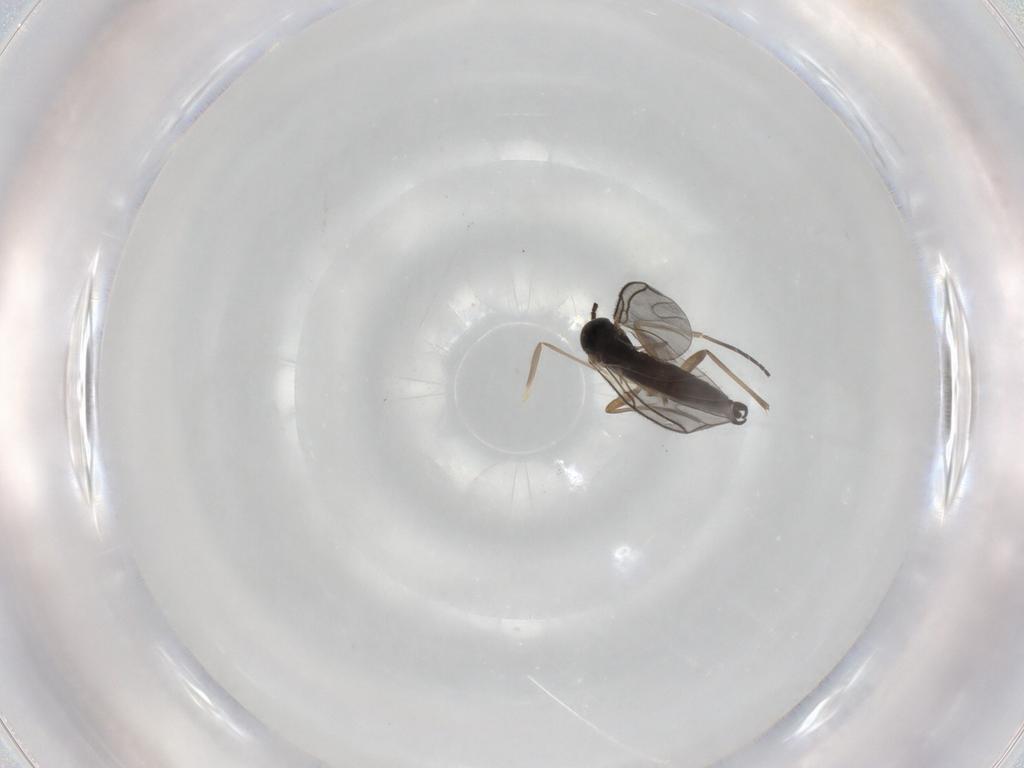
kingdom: Animalia
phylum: Arthropoda
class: Insecta
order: Diptera
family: Sciaridae
